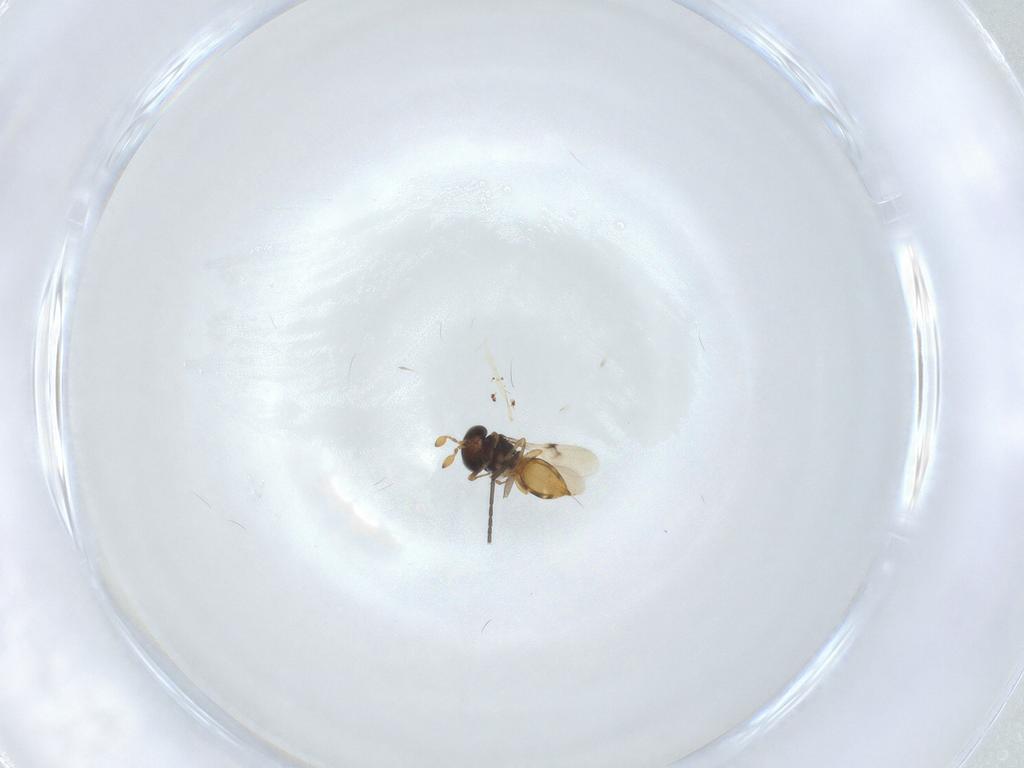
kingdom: Animalia
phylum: Arthropoda
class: Insecta
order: Hymenoptera
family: Scelionidae
